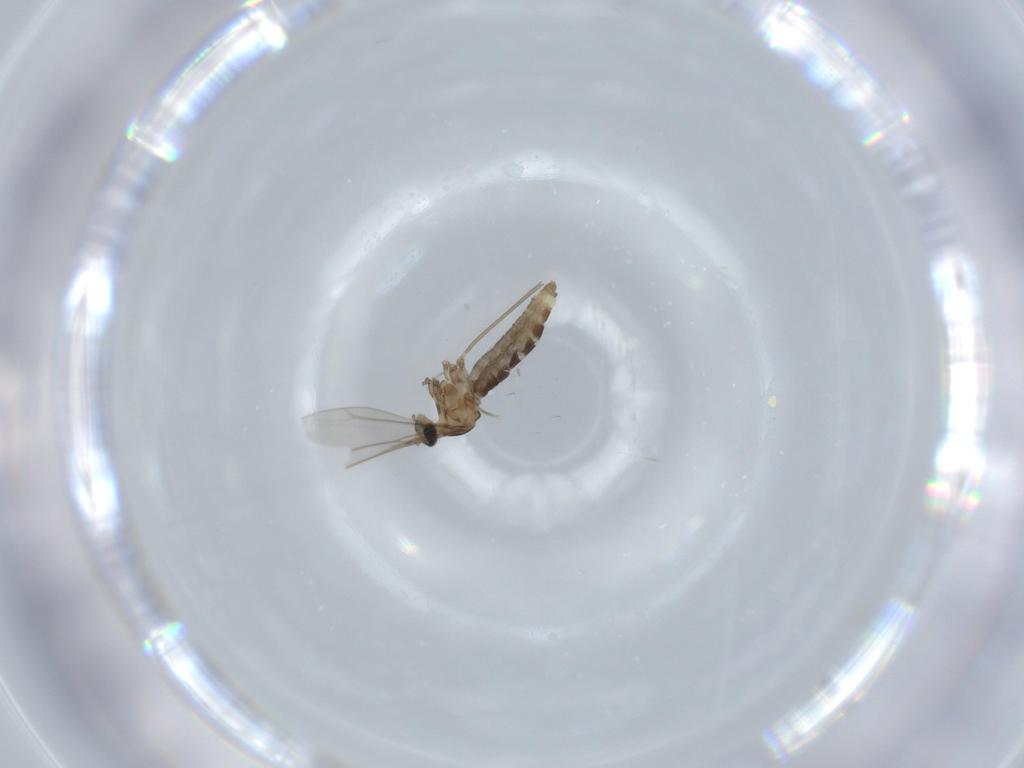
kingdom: Animalia
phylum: Arthropoda
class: Insecta
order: Diptera
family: Cecidomyiidae
